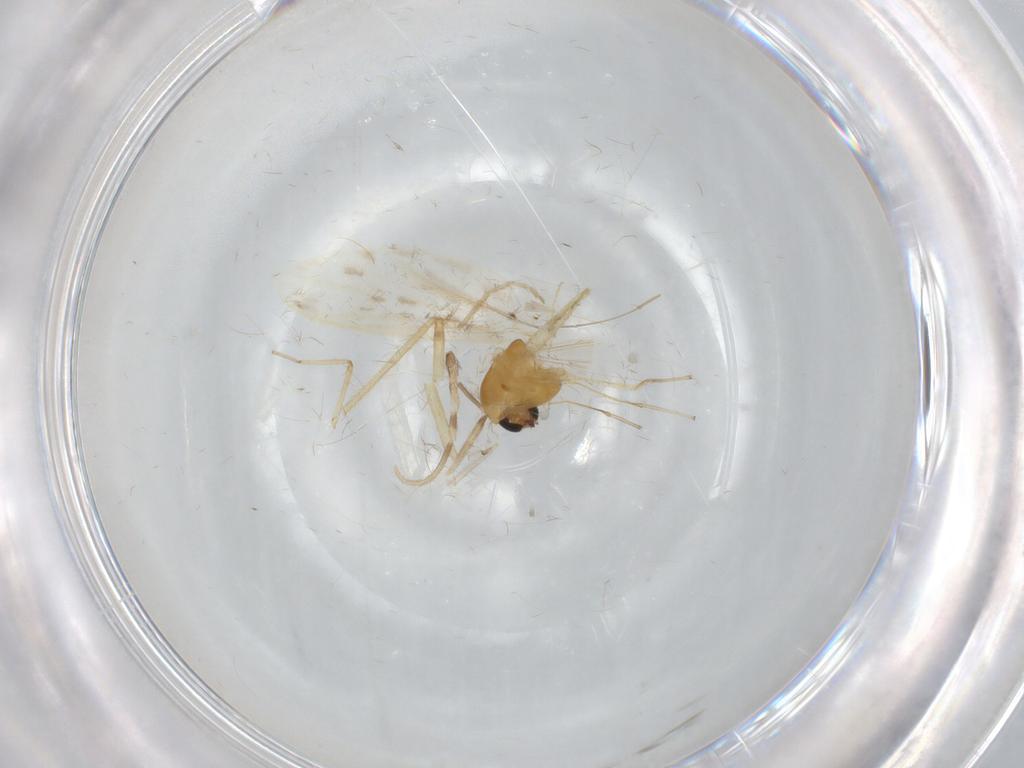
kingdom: Animalia
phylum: Arthropoda
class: Insecta
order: Diptera
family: Chironomidae
